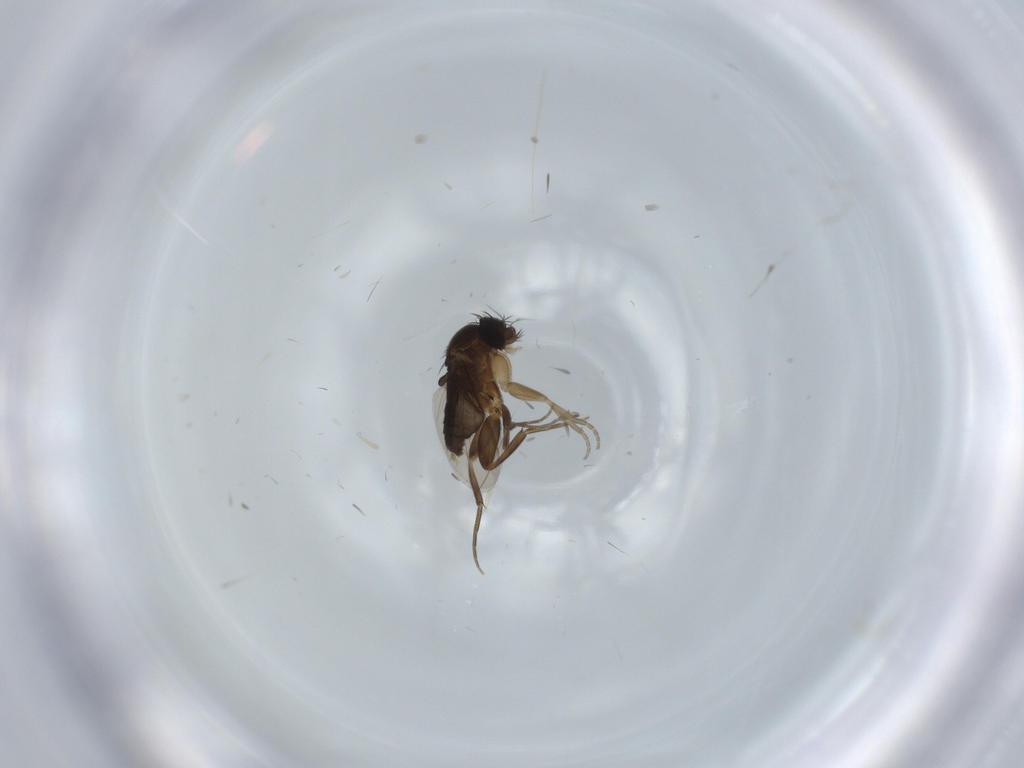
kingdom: Animalia
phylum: Arthropoda
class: Insecta
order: Diptera
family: Phoridae
